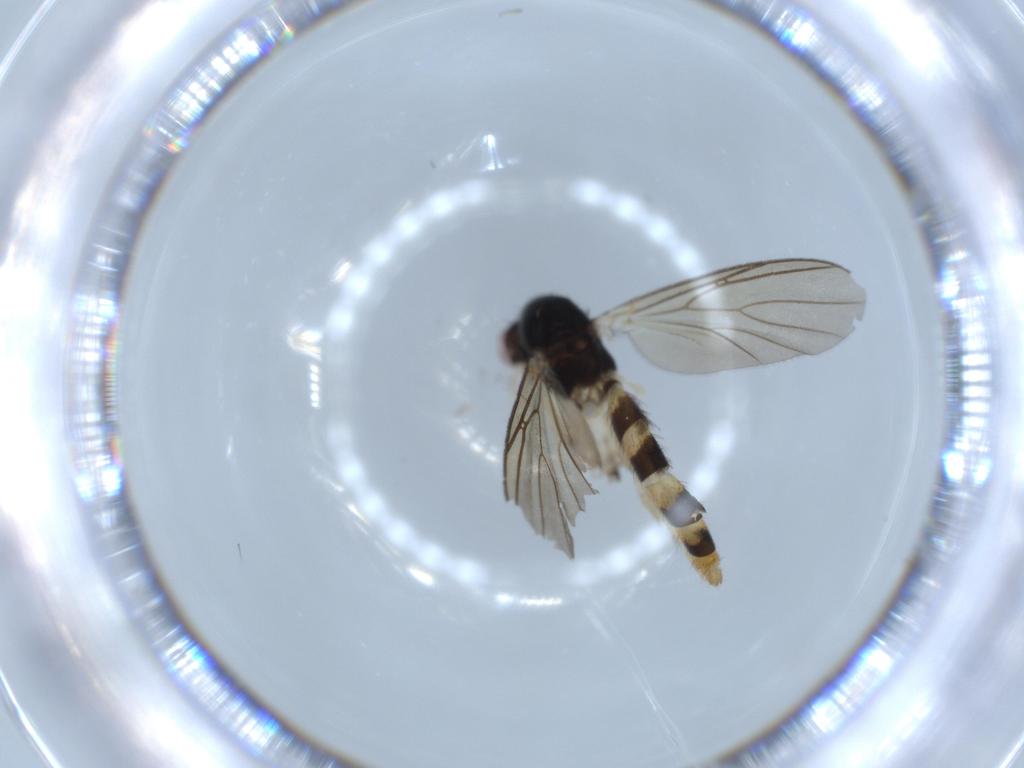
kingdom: Animalia
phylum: Arthropoda
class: Insecta
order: Diptera
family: Mycetophilidae
